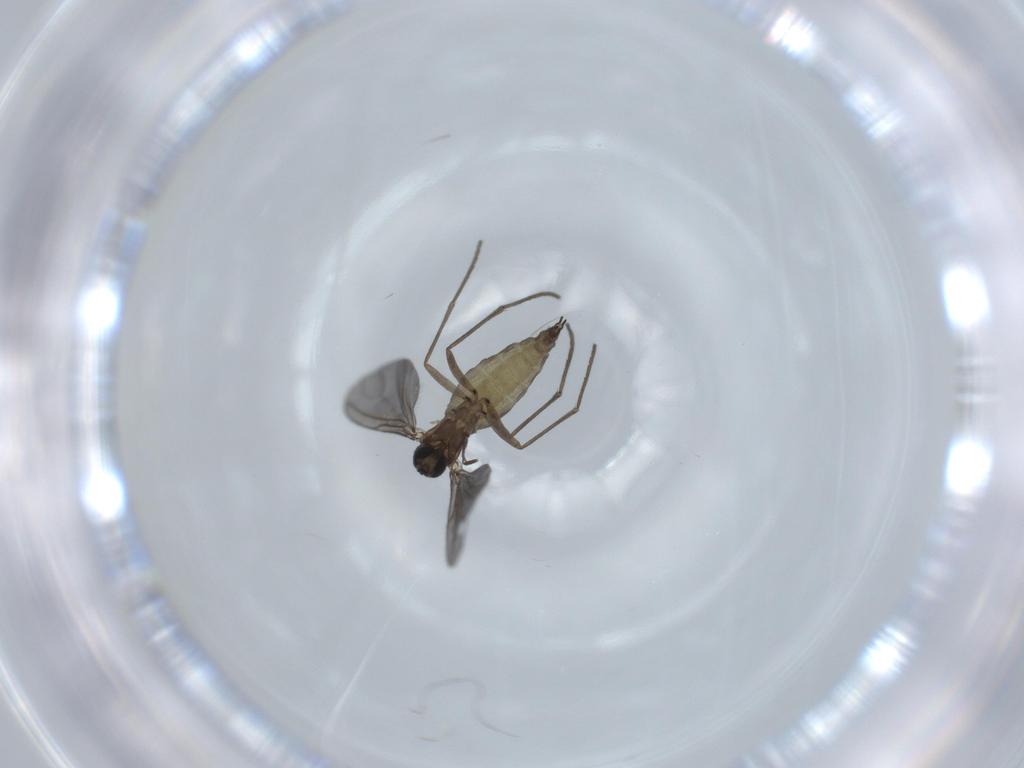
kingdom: Animalia
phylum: Arthropoda
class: Insecta
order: Diptera
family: Sciaridae
